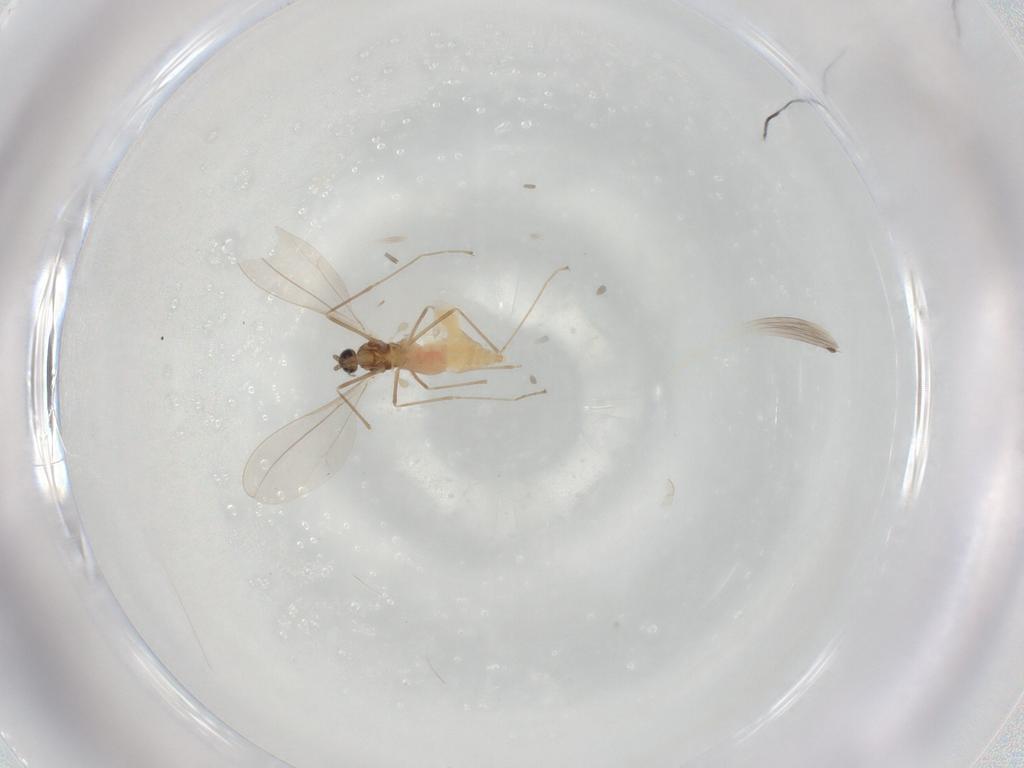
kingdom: Animalia
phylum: Arthropoda
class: Insecta
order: Diptera
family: Cecidomyiidae
